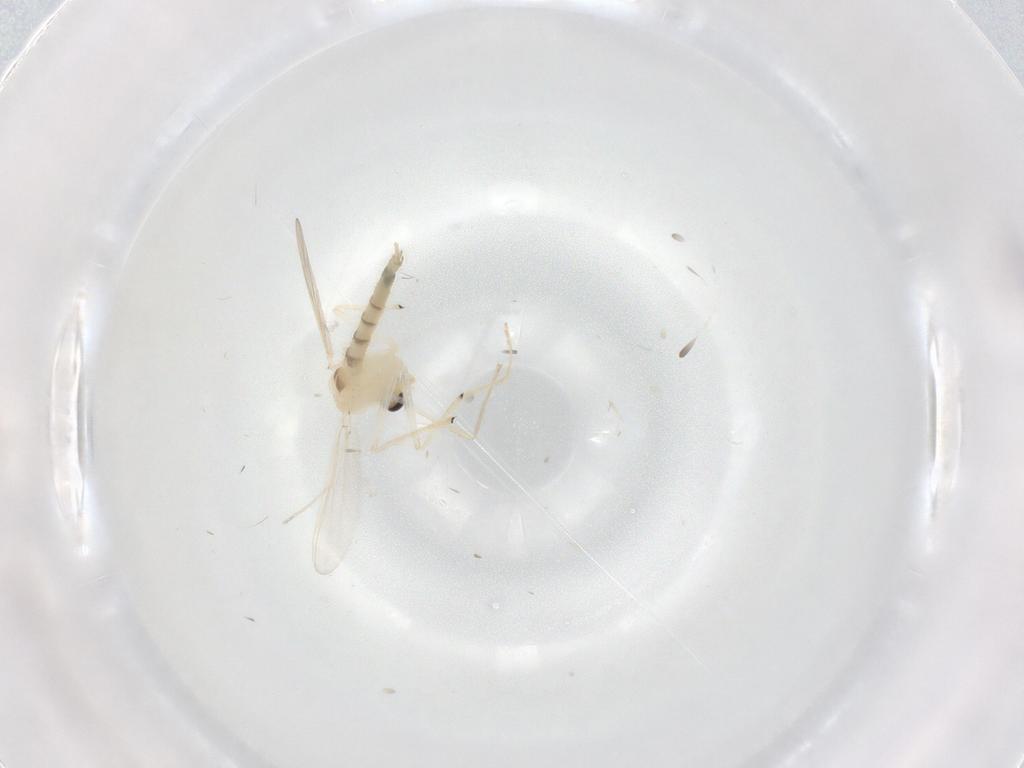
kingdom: Animalia
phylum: Arthropoda
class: Insecta
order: Diptera
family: Chironomidae
